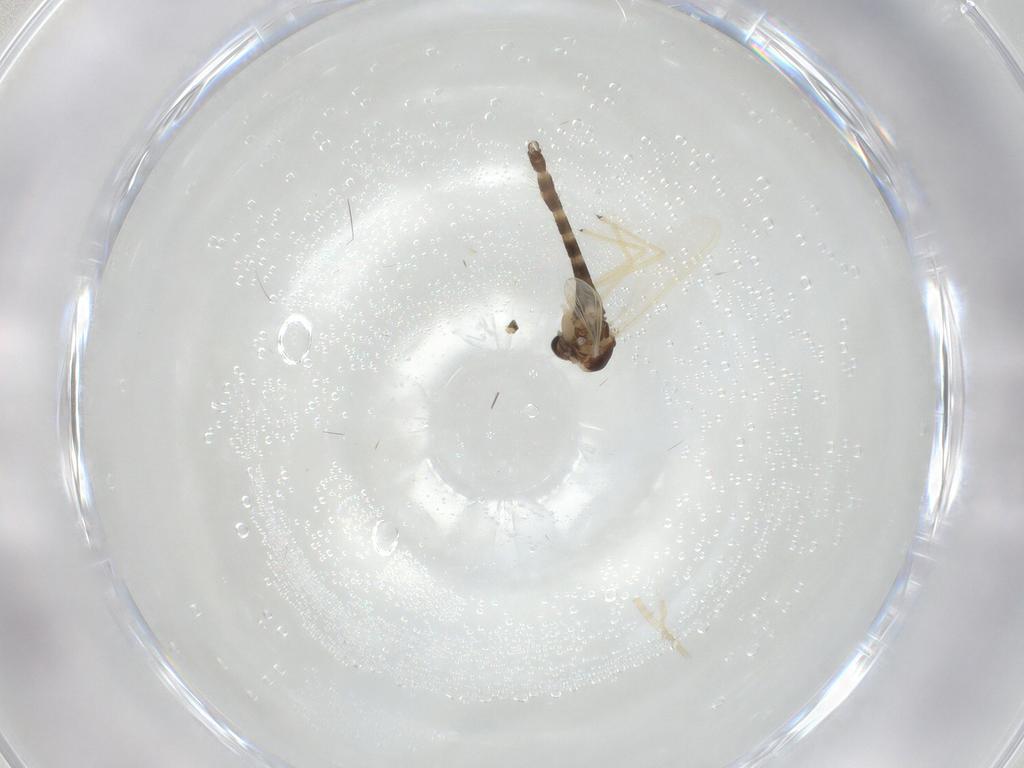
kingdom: Animalia
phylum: Arthropoda
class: Insecta
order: Diptera
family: Chironomidae
